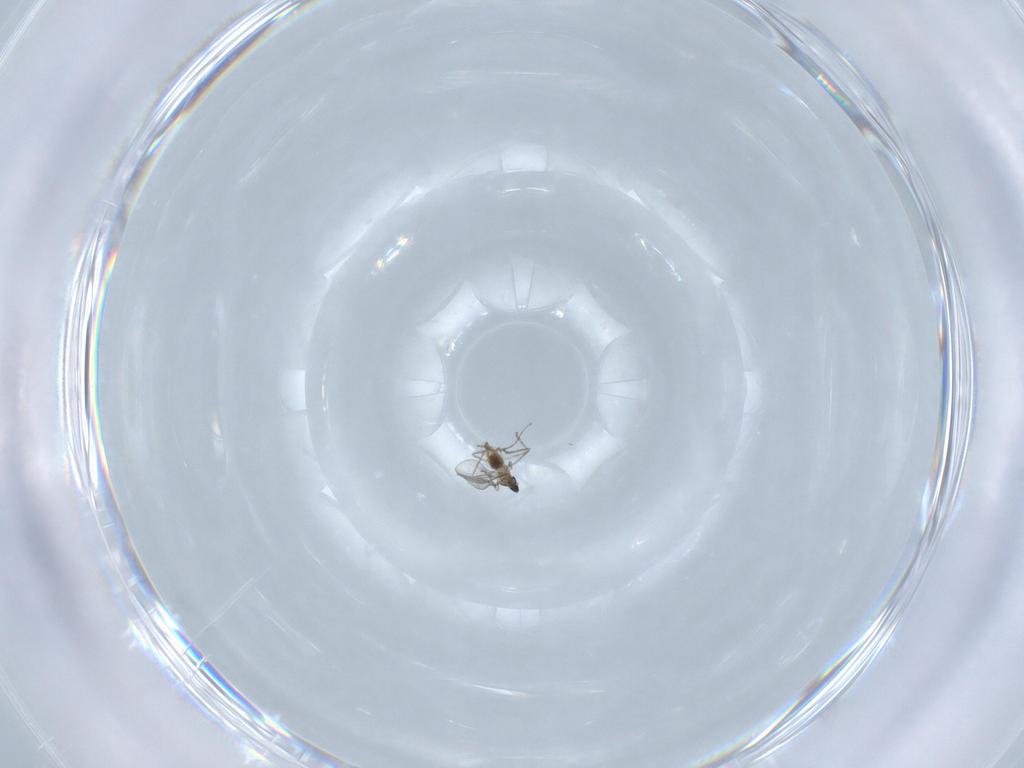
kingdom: Animalia
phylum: Arthropoda
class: Insecta
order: Diptera
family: Cecidomyiidae
